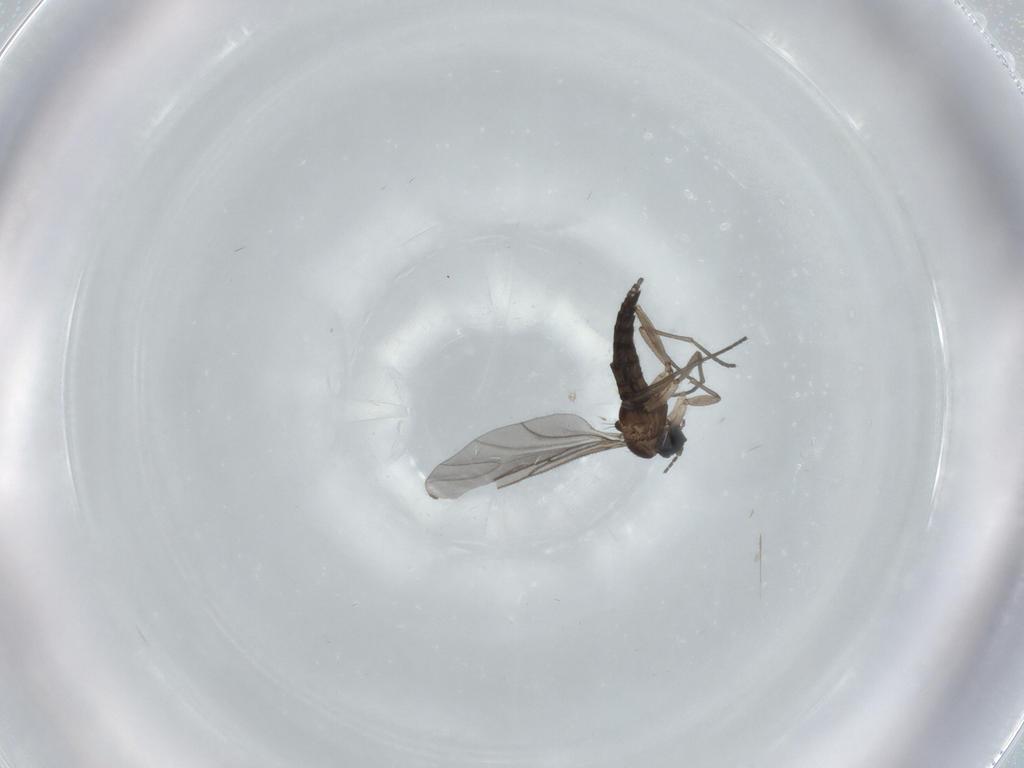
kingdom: Animalia
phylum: Arthropoda
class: Insecta
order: Diptera
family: Sciaridae
